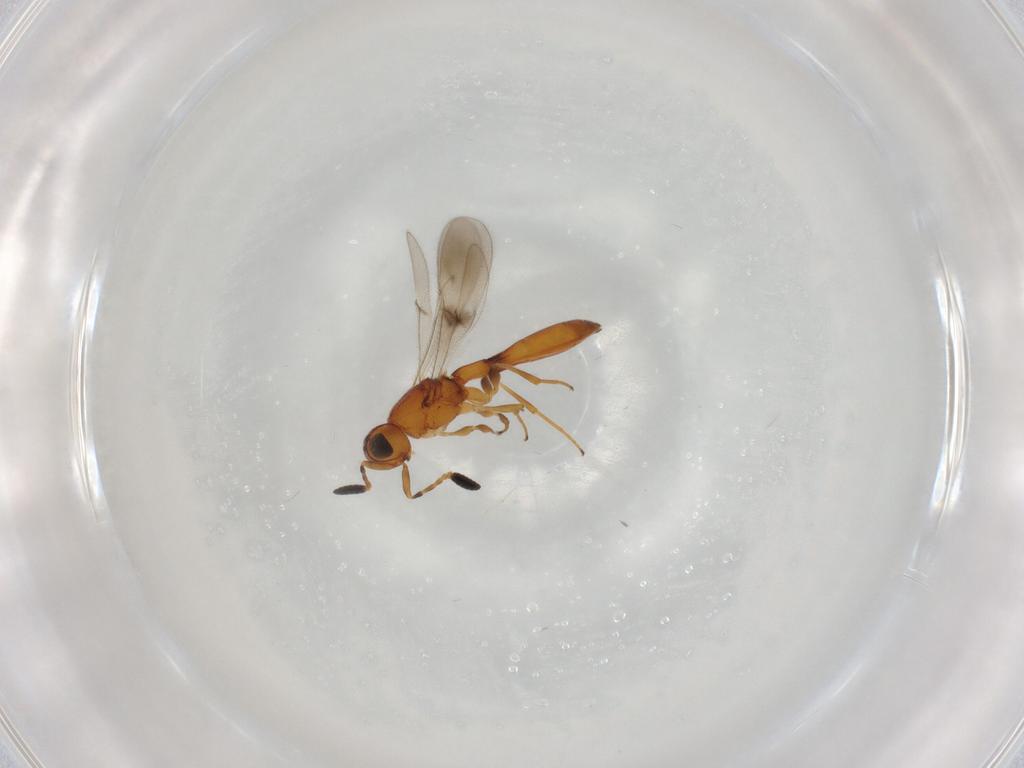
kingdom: Animalia
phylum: Arthropoda
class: Insecta
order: Hymenoptera
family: Scelionidae
